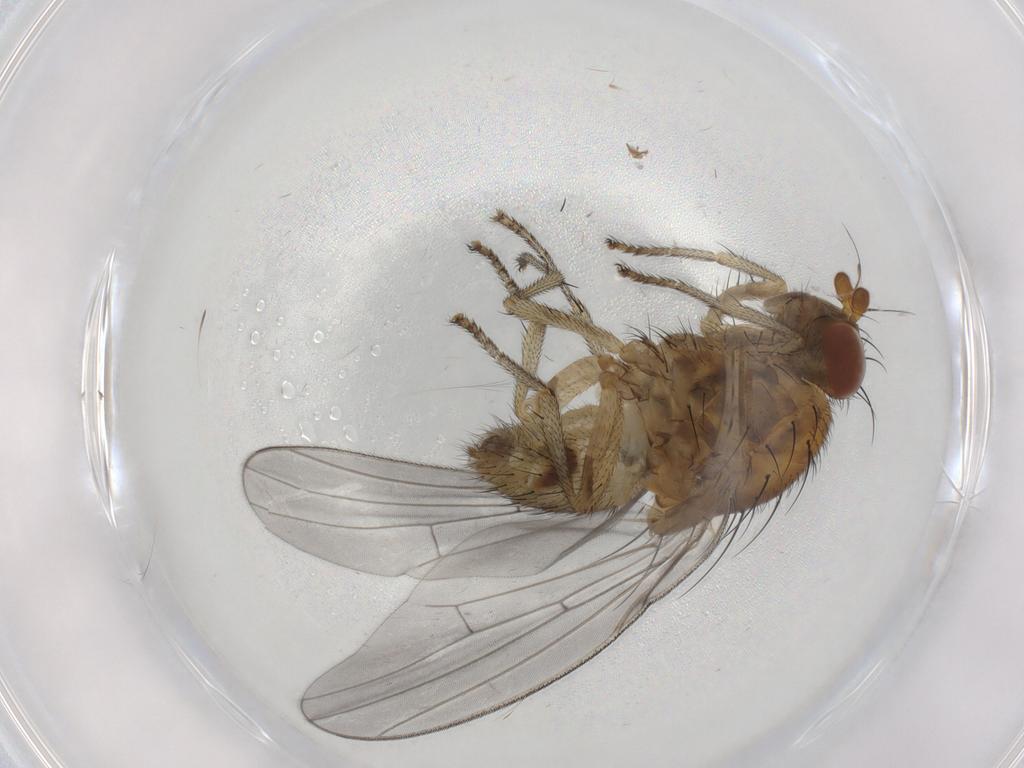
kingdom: Animalia
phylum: Arthropoda
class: Insecta
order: Diptera
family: Lauxaniidae
